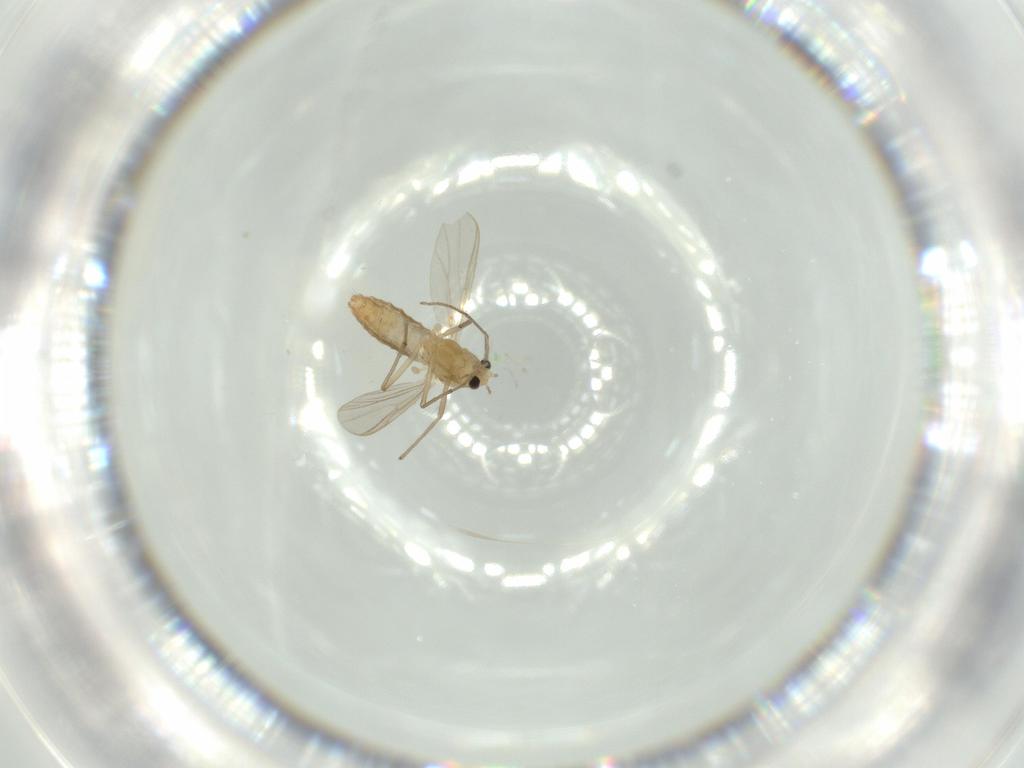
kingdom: Animalia
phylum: Arthropoda
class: Insecta
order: Diptera
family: Chironomidae
